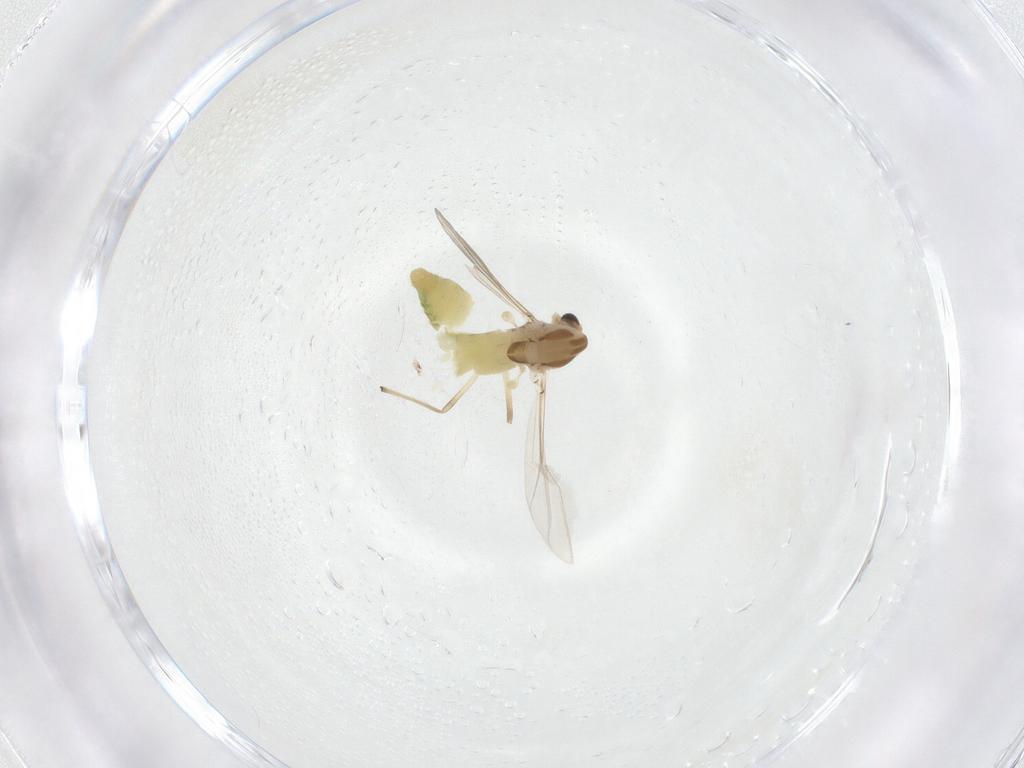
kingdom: Animalia
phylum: Arthropoda
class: Insecta
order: Diptera
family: Chironomidae
